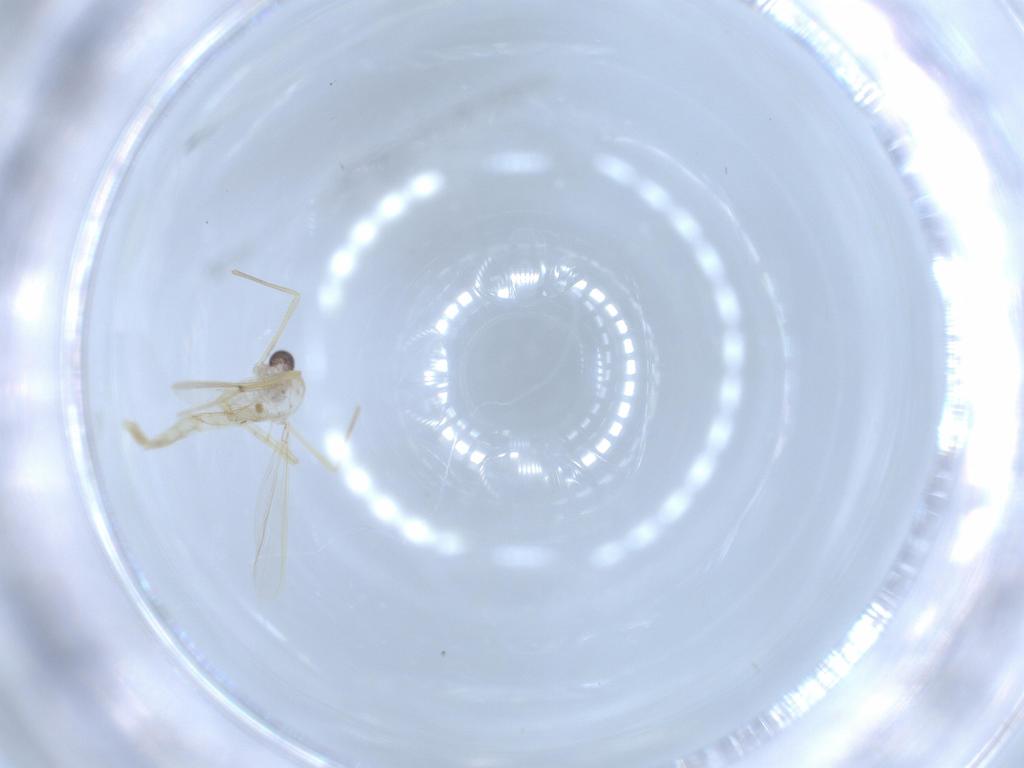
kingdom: Animalia
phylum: Arthropoda
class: Insecta
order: Diptera
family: Chironomidae
